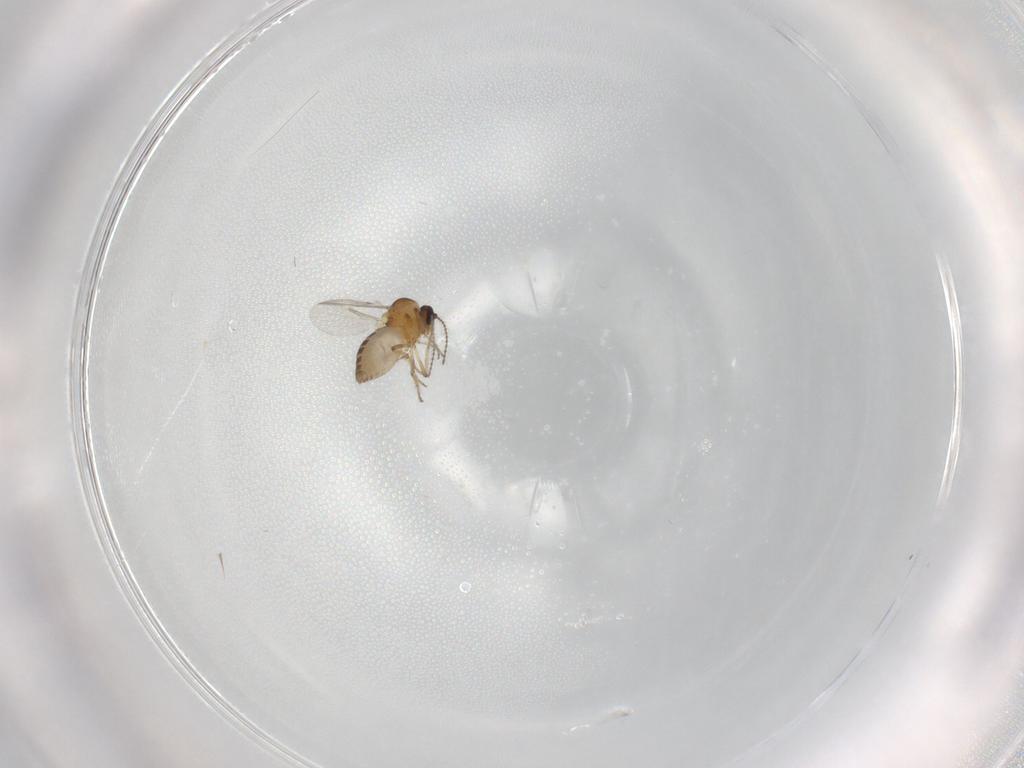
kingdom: Animalia
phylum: Arthropoda
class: Insecta
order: Diptera
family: Ceratopogonidae
